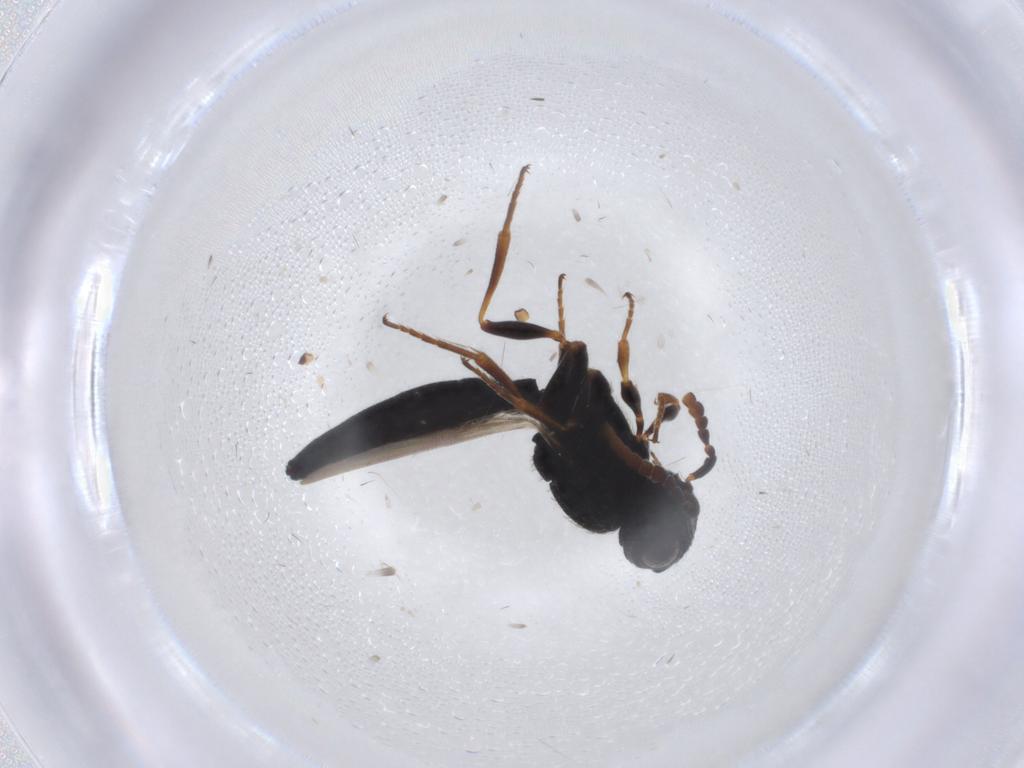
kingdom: Animalia
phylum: Arthropoda
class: Insecta
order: Hymenoptera
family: Scelionidae
